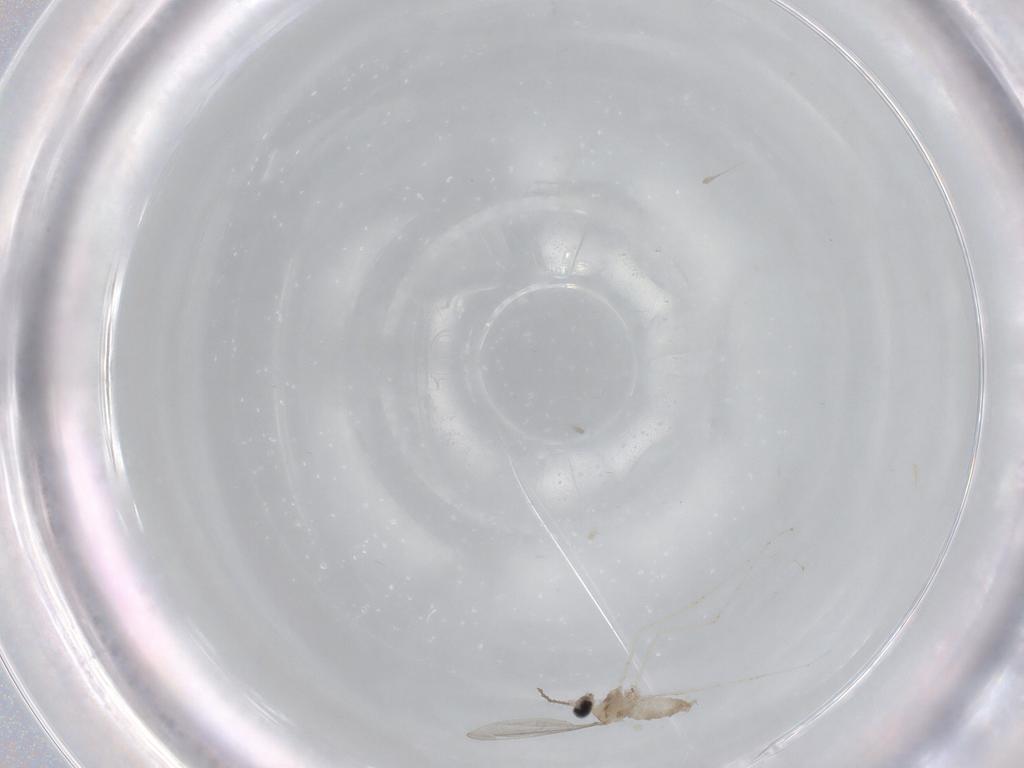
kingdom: Animalia
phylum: Arthropoda
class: Insecta
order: Diptera
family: Cecidomyiidae
